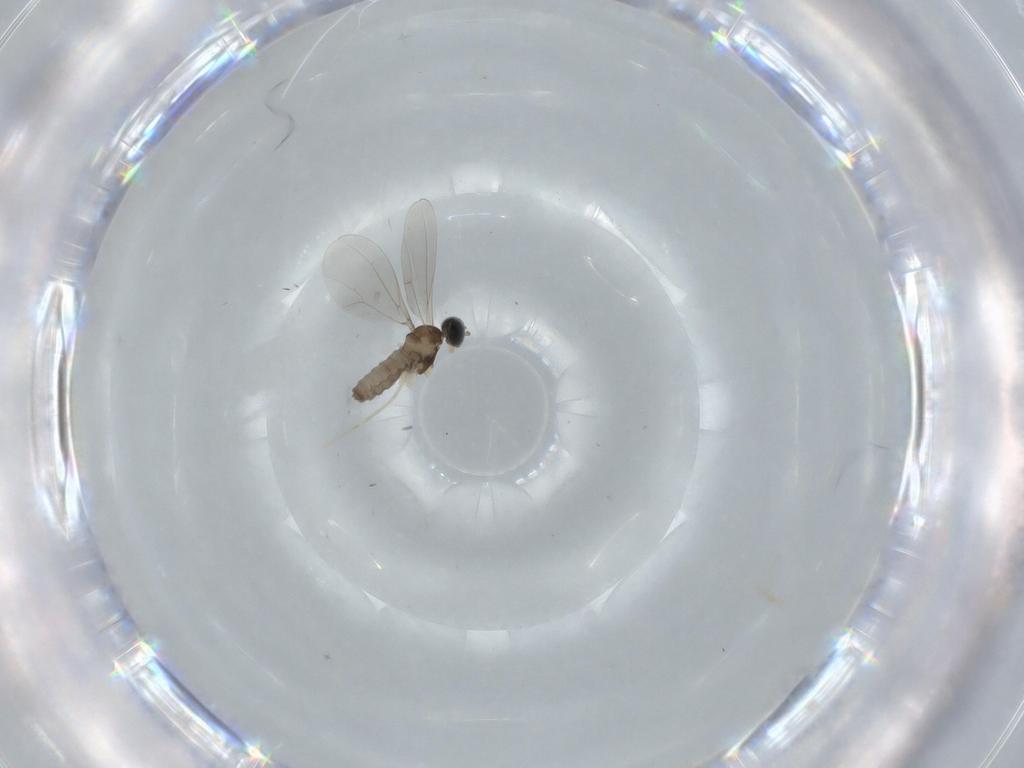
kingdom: Animalia
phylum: Arthropoda
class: Insecta
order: Diptera
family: Cecidomyiidae
